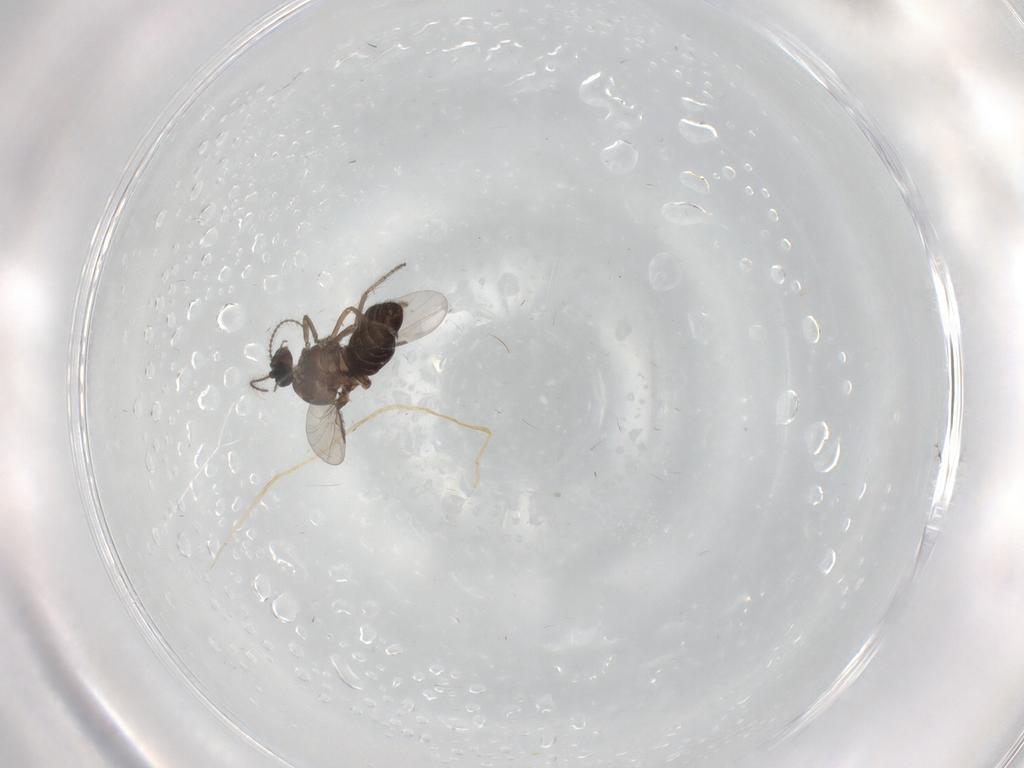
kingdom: Animalia
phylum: Arthropoda
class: Insecta
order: Diptera
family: Ceratopogonidae
